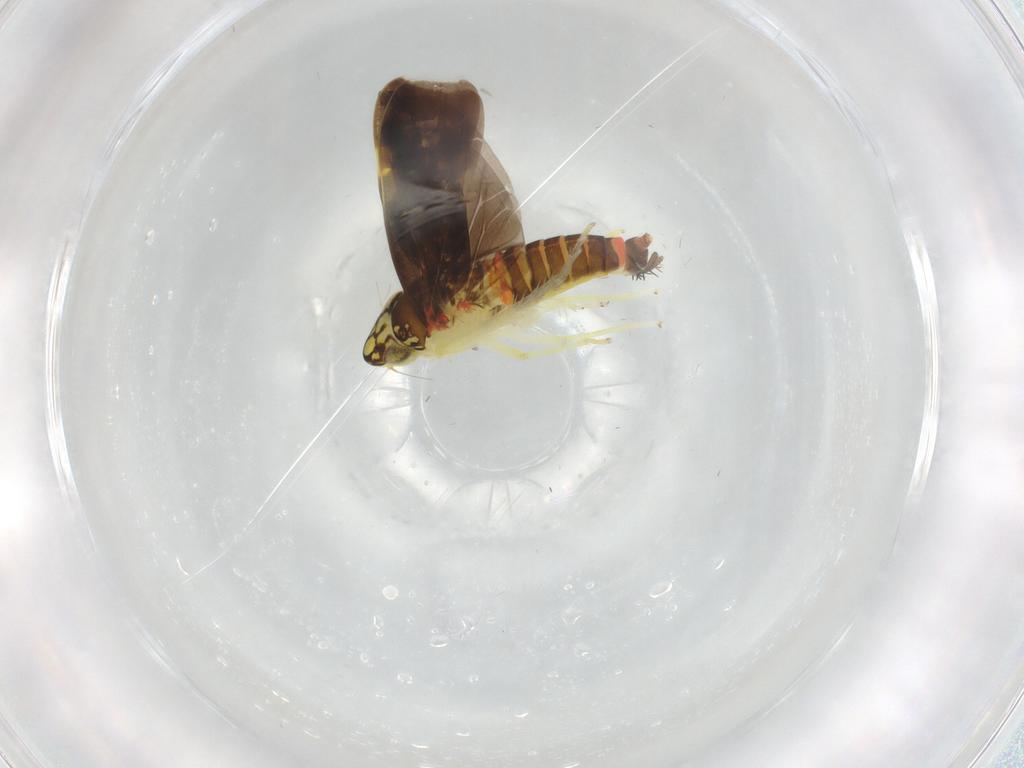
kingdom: Animalia
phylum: Arthropoda
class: Insecta
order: Hemiptera
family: Cicadellidae
